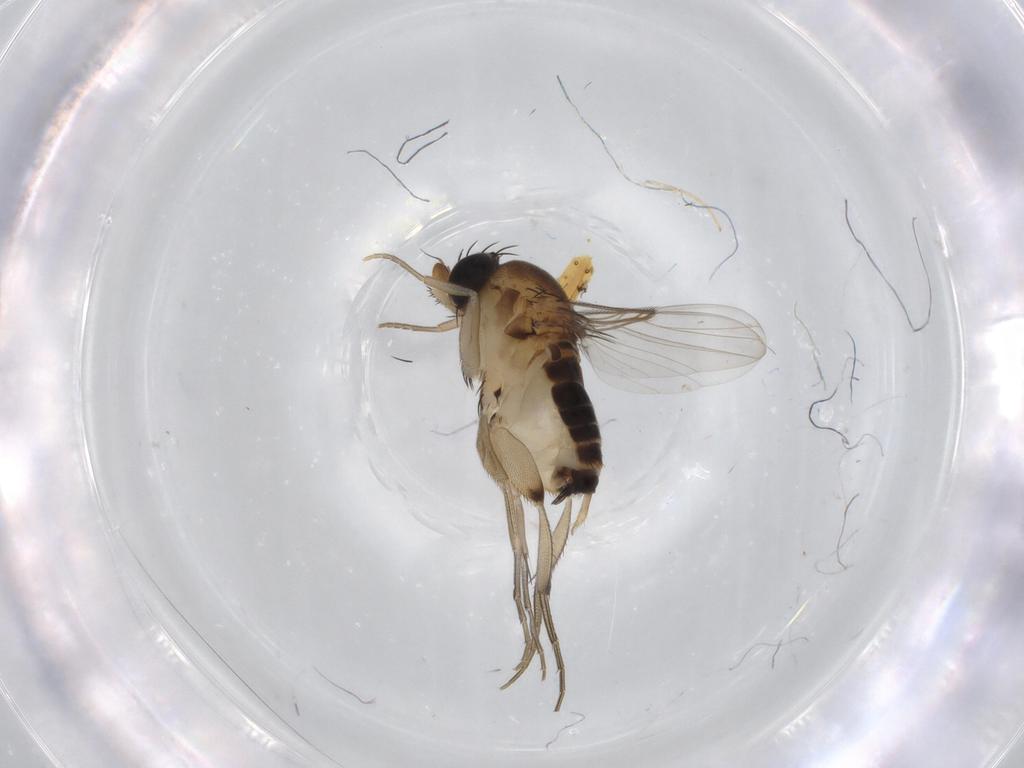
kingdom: Animalia
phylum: Arthropoda
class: Insecta
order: Diptera
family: Phoridae
